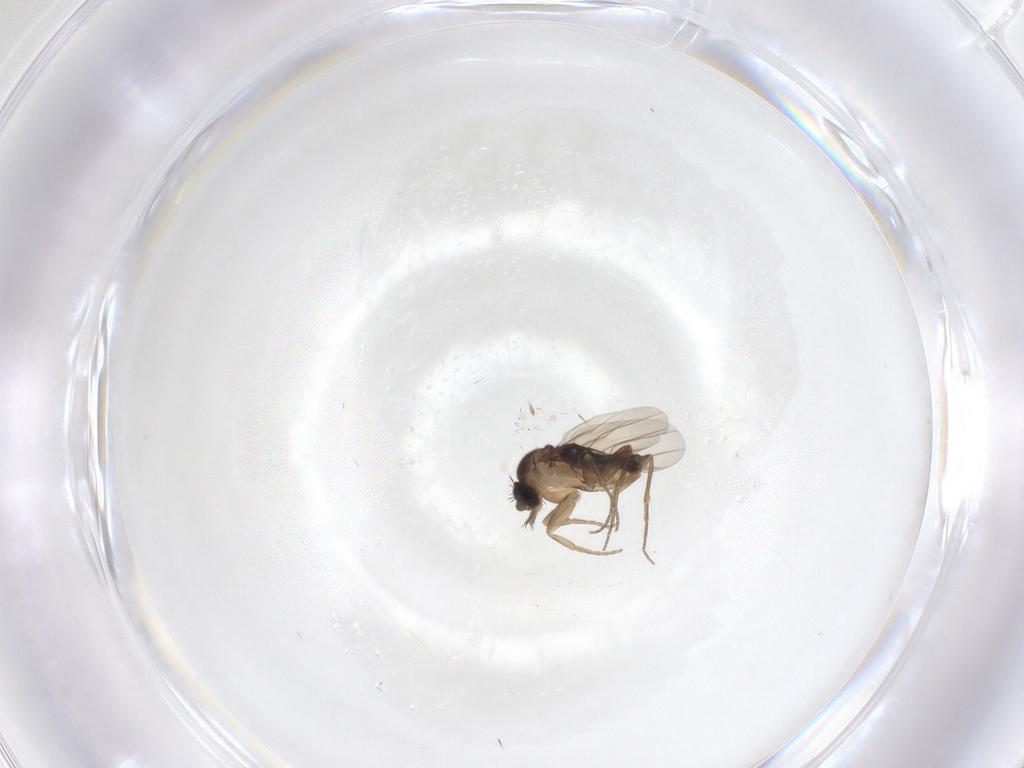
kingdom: Animalia
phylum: Arthropoda
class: Insecta
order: Diptera
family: Phoridae
